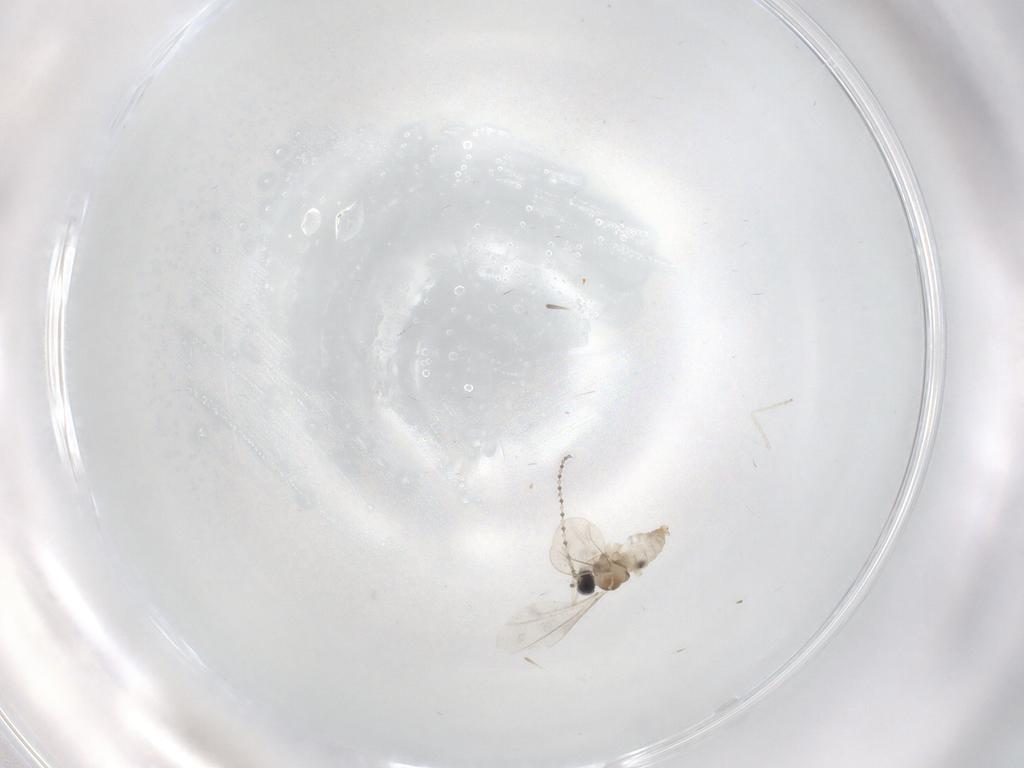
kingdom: Animalia
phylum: Arthropoda
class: Insecta
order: Diptera
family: Cecidomyiidae
